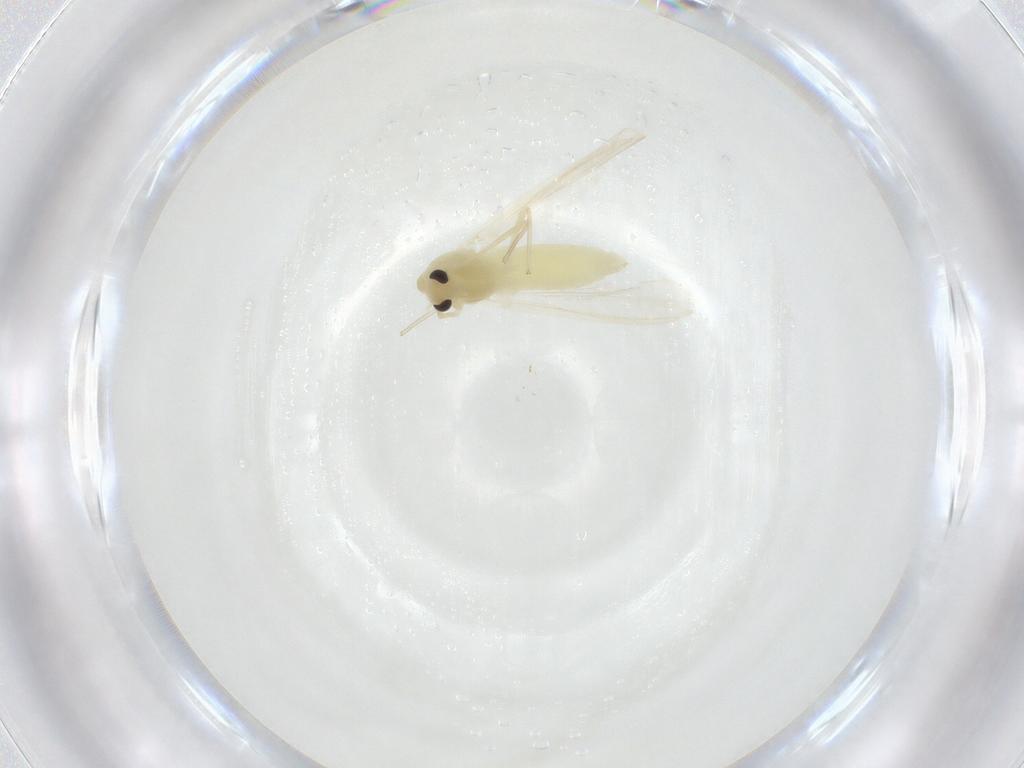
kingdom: Animalia
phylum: Arthropoda
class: Insecta
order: Diptera
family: Chironomidae
